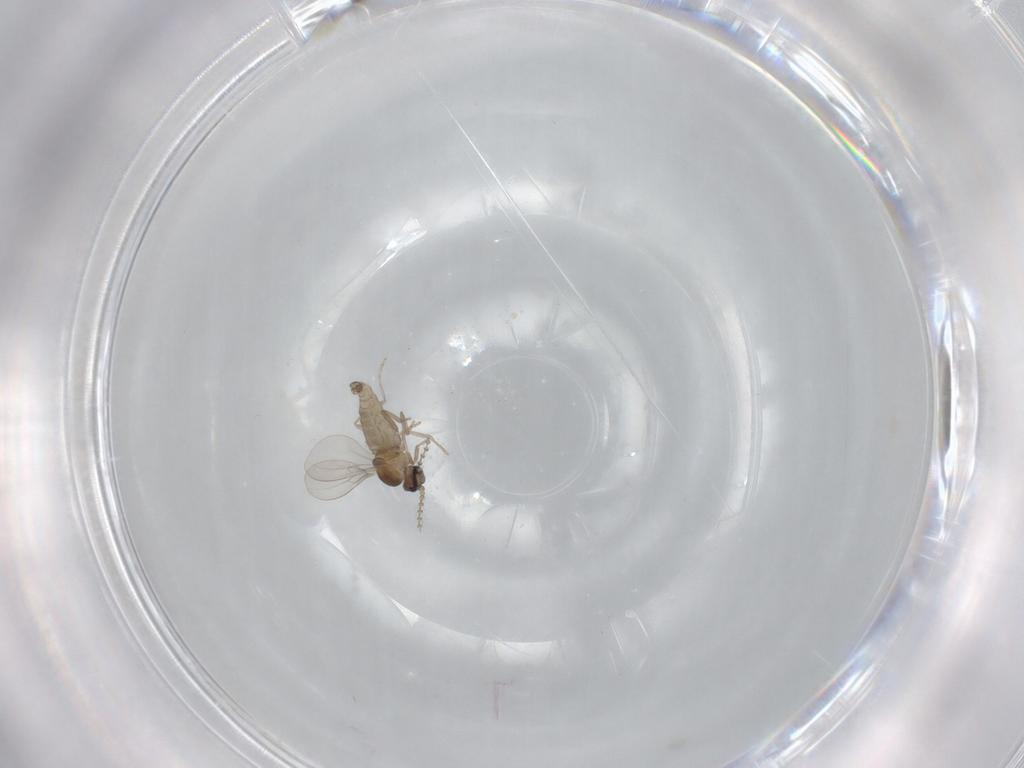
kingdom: Animalia
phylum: Arthropoda
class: Insecta
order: Diptera
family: Cecidomyiidae
